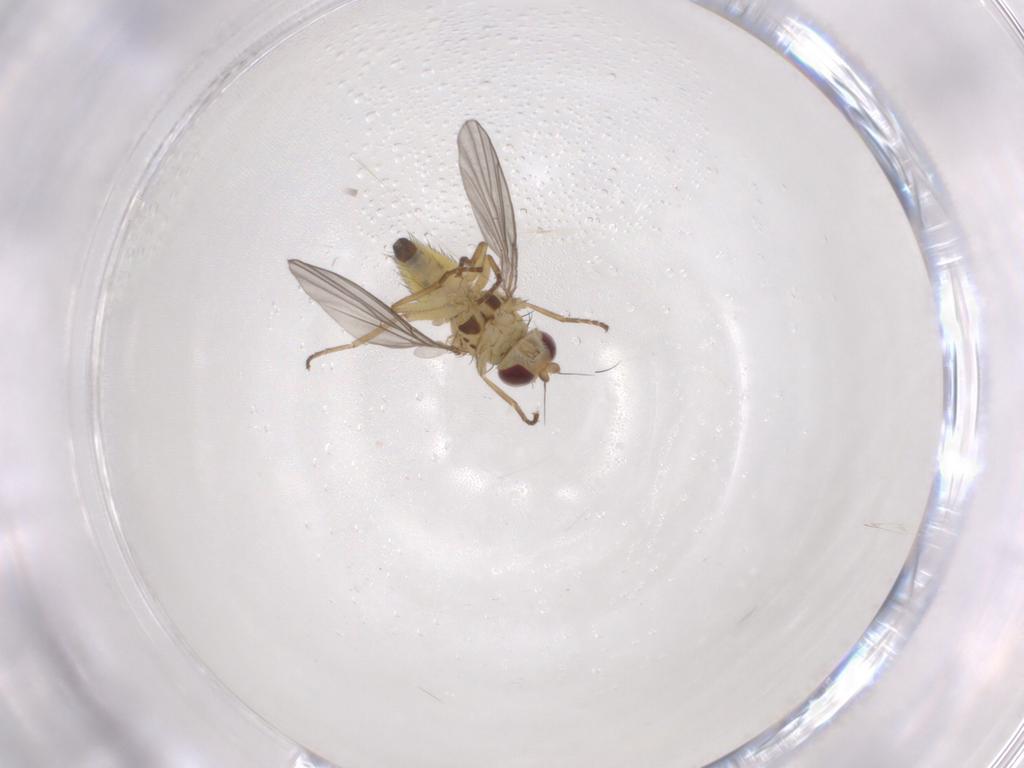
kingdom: Animalia
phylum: Arthropoda
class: Insecta
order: Diptera
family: Agromyzidae
